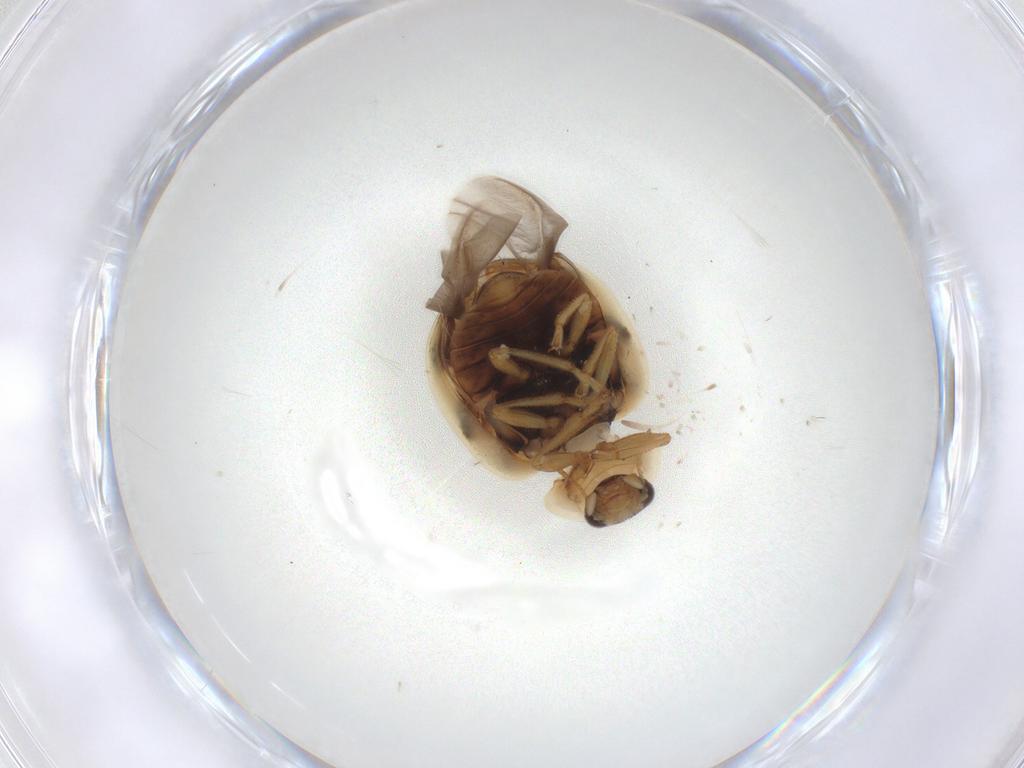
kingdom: Animalia
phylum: Arthropoda
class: Insecta
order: Coleoptera
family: Coccinellidae
